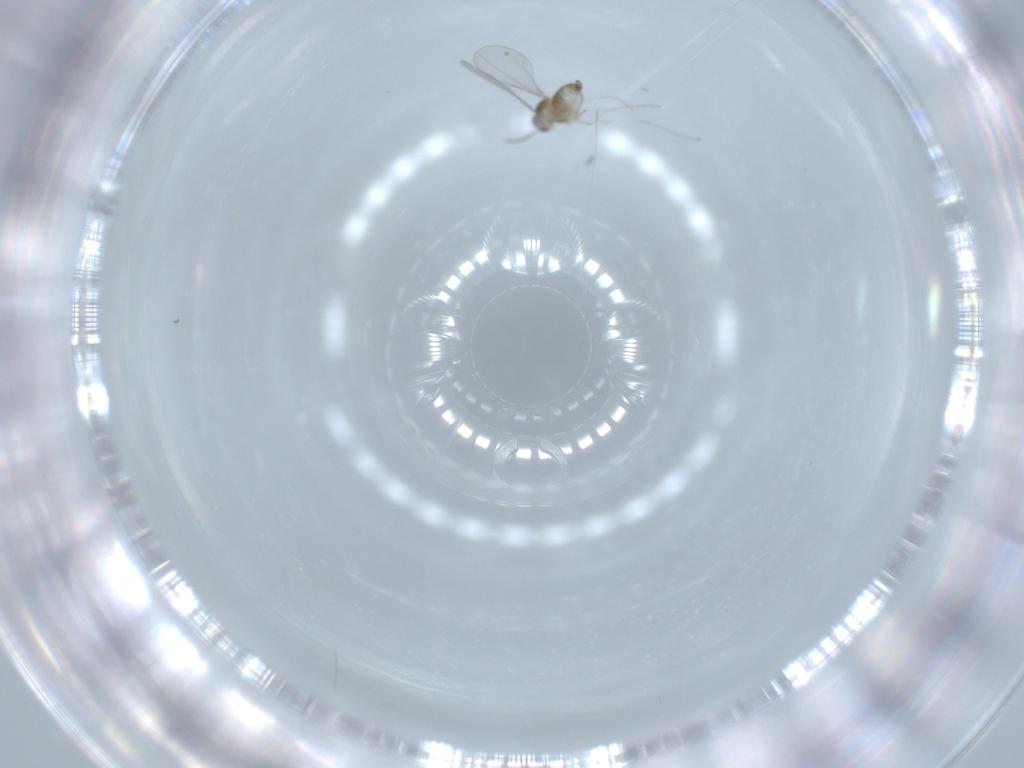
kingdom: Animalia
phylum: Arthropoda
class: Insecta
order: Diptera
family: Cecidomyiidae
